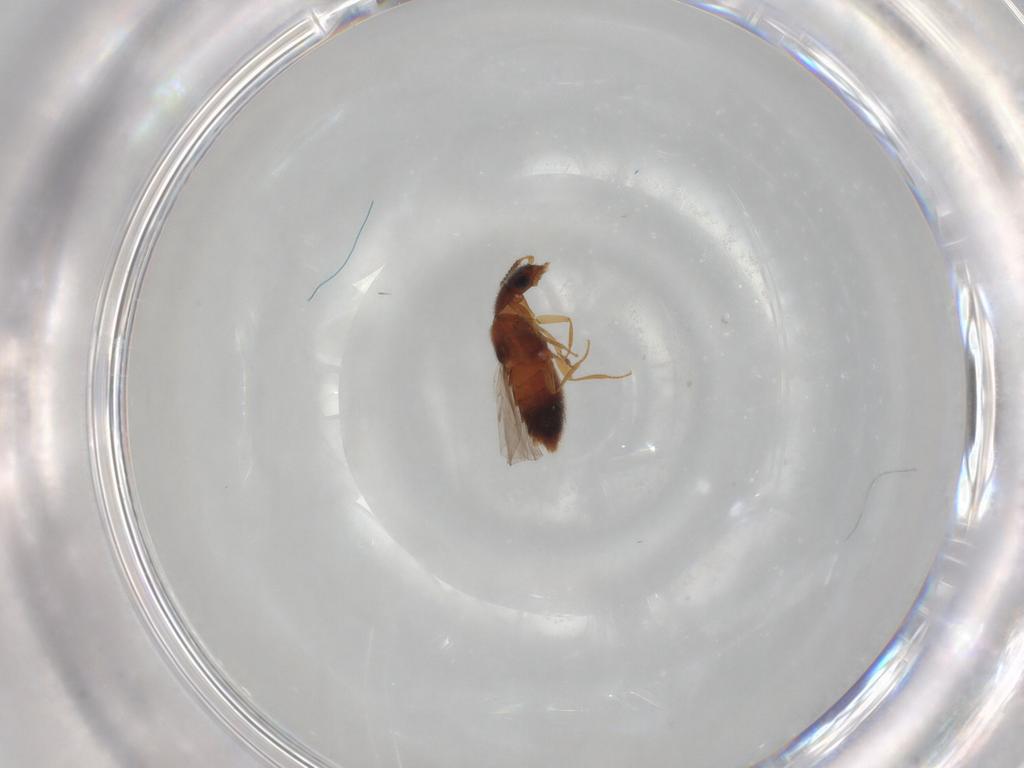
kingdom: Animalia
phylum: Arthropoda
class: Insecta
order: Coleoptera
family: Staphylinidae
